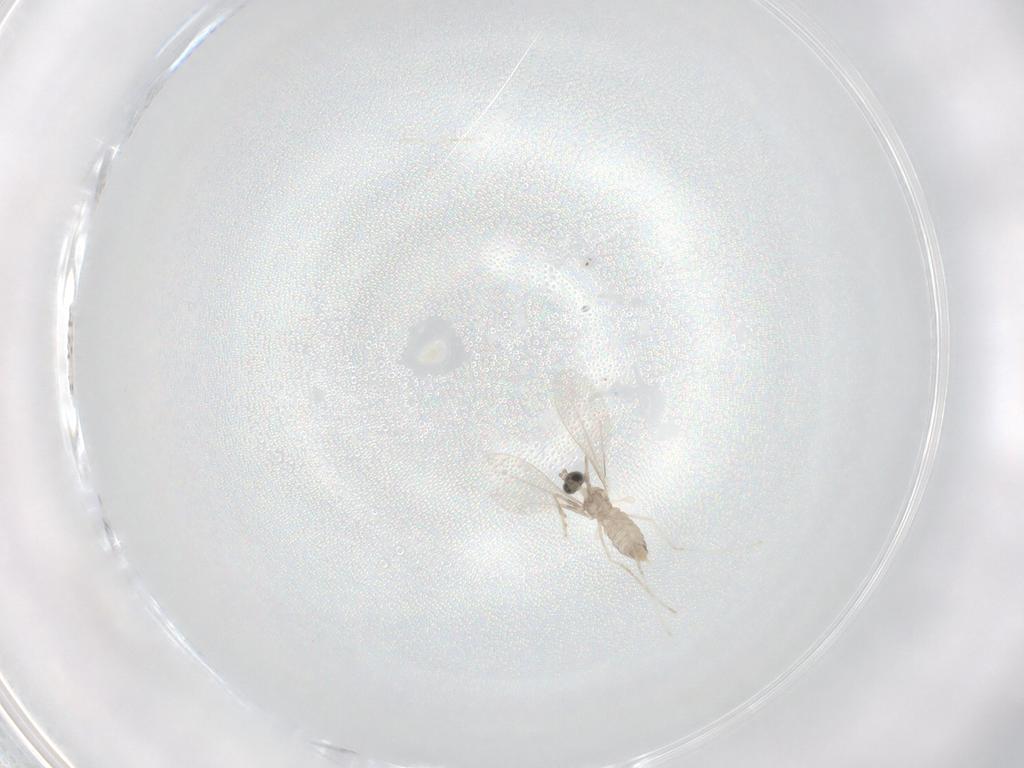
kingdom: Animalia
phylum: Arthropoda
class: Insecta
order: Diptera
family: Cecidomyiidae
